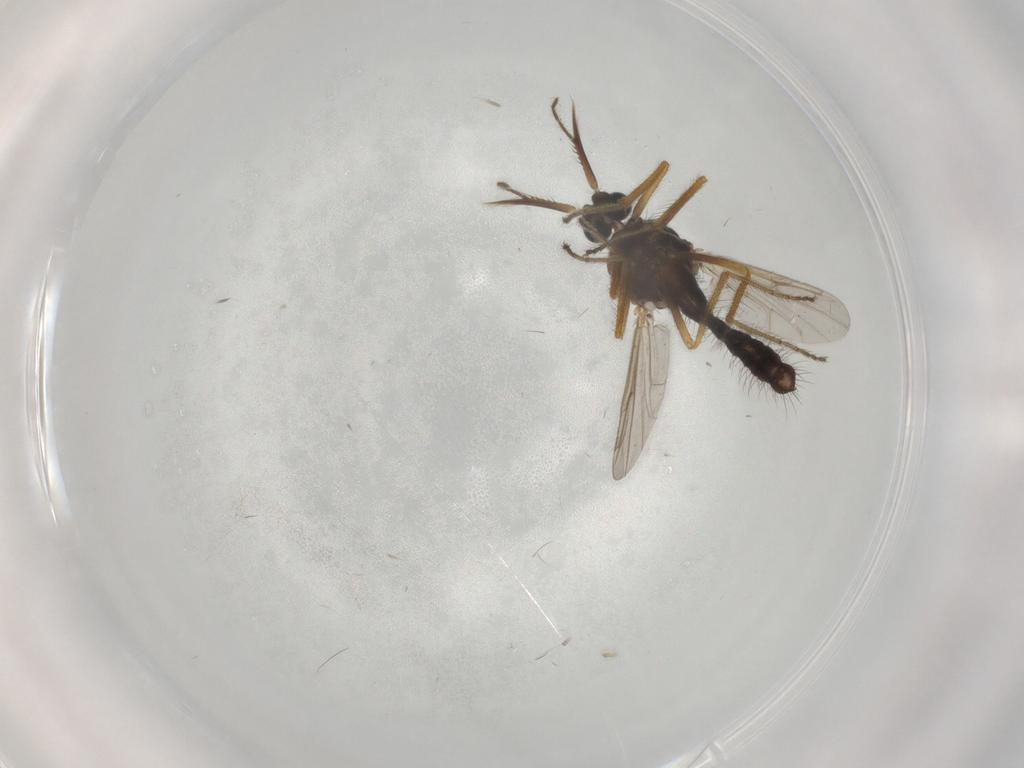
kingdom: Animalia
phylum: Arthropoda
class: Insecta
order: Diptera
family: Ceratopogonidae
